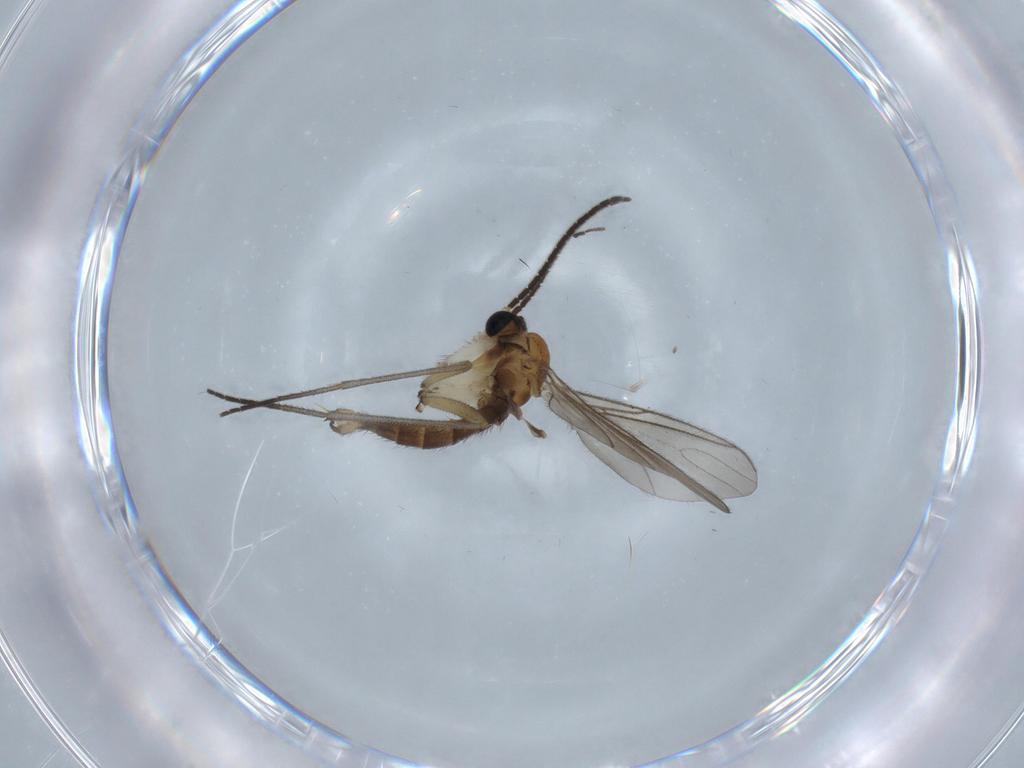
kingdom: Animalia
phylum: Arthropoda
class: Insecta
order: Diptera
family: Sciaridae
